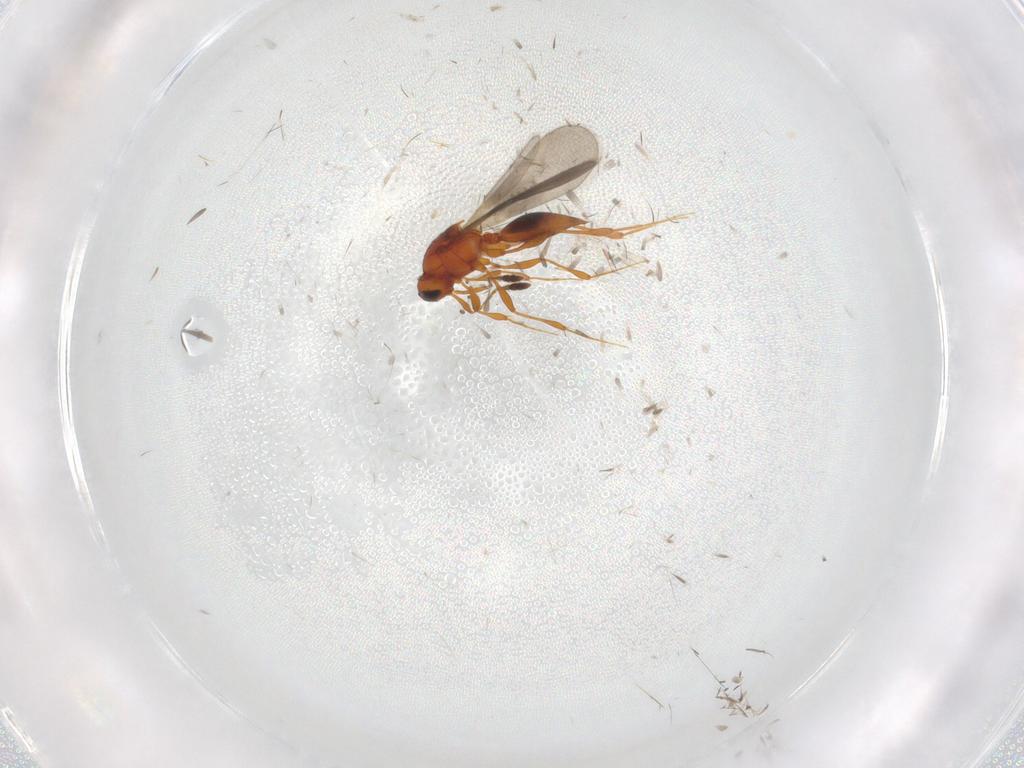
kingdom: Animalia
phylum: Arthropoda
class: Insecta
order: Hymenoptera
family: Platygastridae
